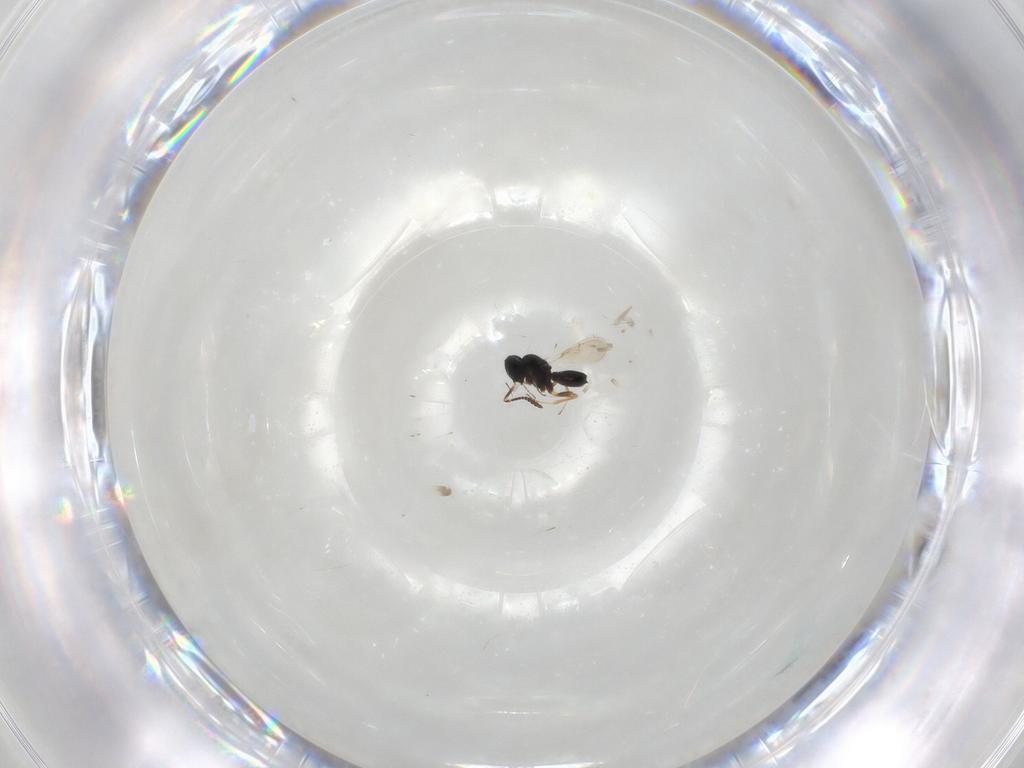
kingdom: Animalia
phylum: Arthropoda
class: Insecta
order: Hymenoptera
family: Scelionidae
